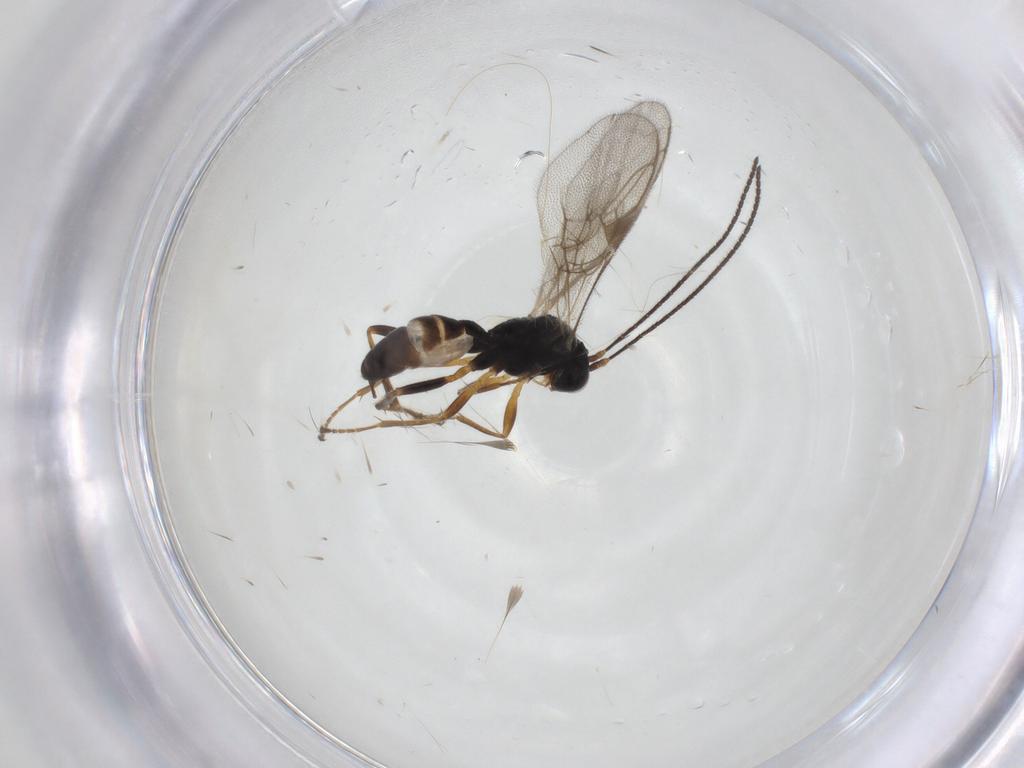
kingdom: Animalia
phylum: Arthropoda
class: Insecta
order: Hymenoptera
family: Ichneumonidae
